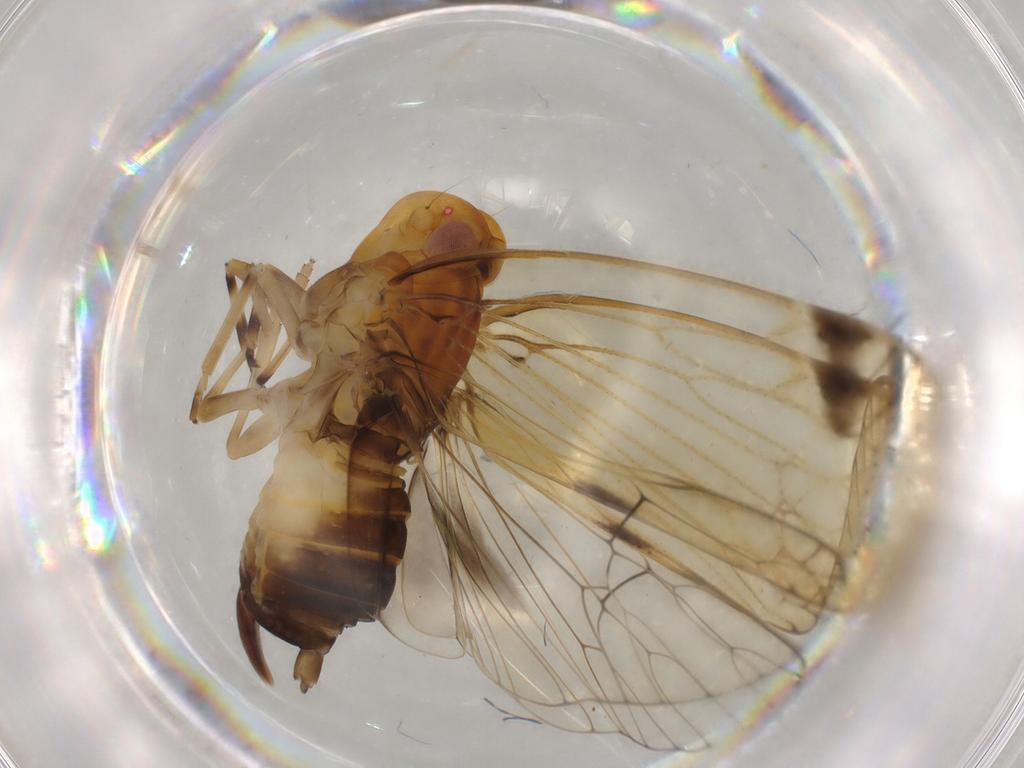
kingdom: Animalia
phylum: Arthropoda
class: Insecta
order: Hemiptera
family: Cixiidae
